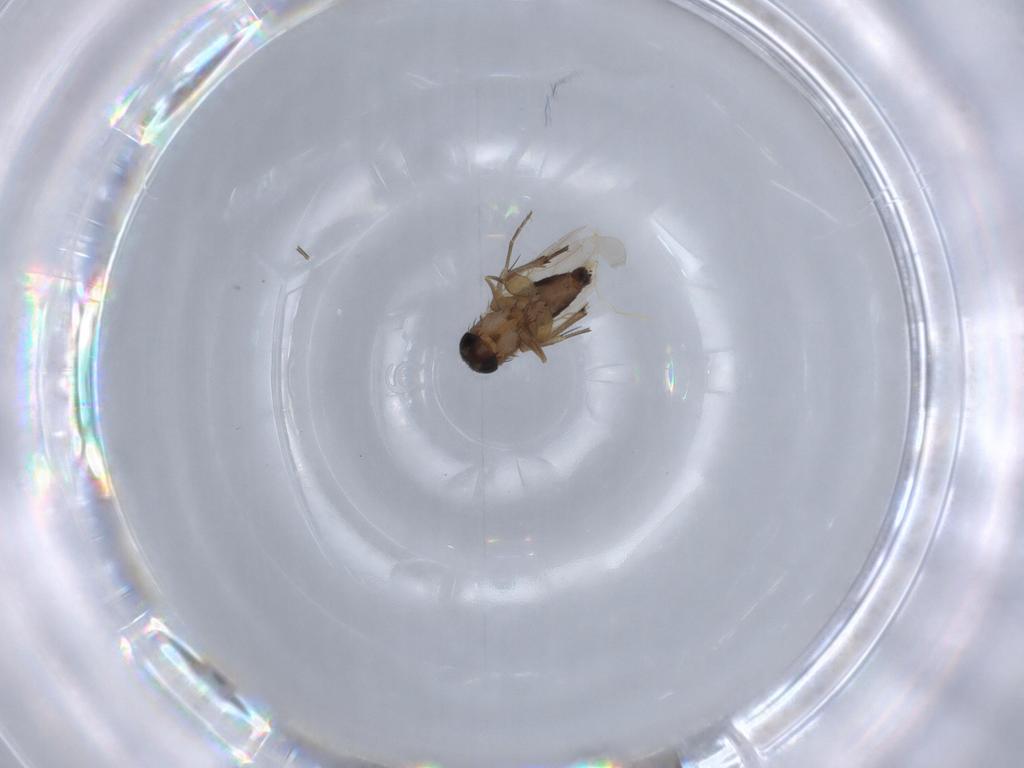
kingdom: Animalia
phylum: Arthropoda
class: Insecta
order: Diptera
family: Phoridae
